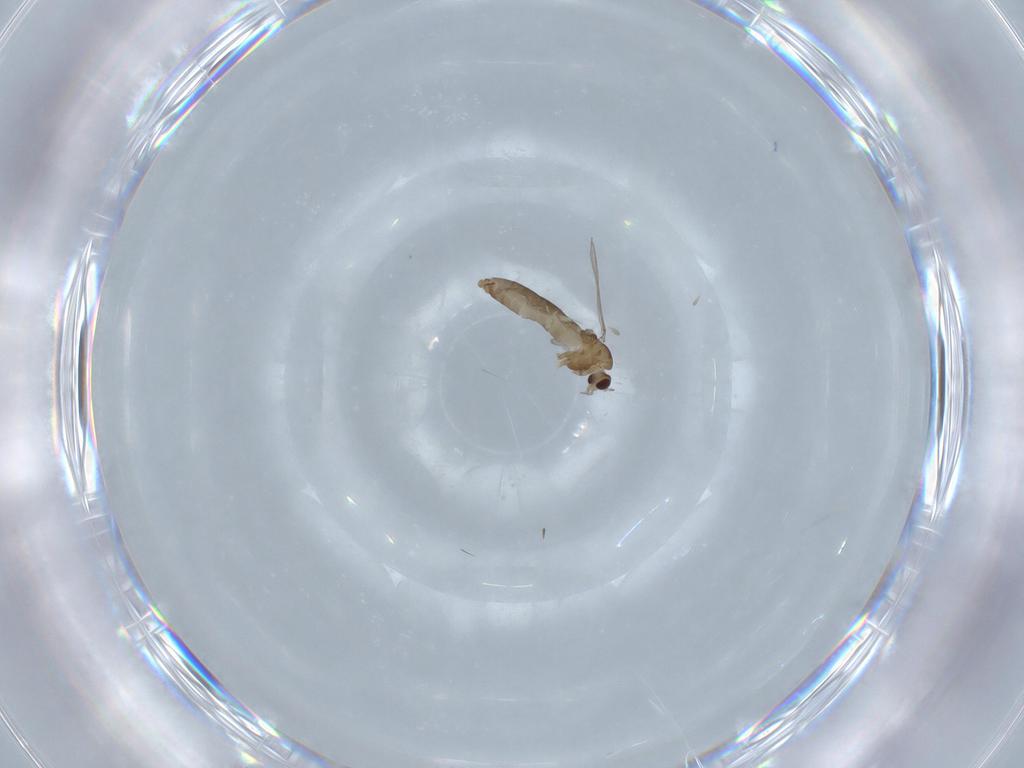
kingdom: Animalia
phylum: Arthropoda
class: Insecta
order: Diptera
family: Chironomidae
